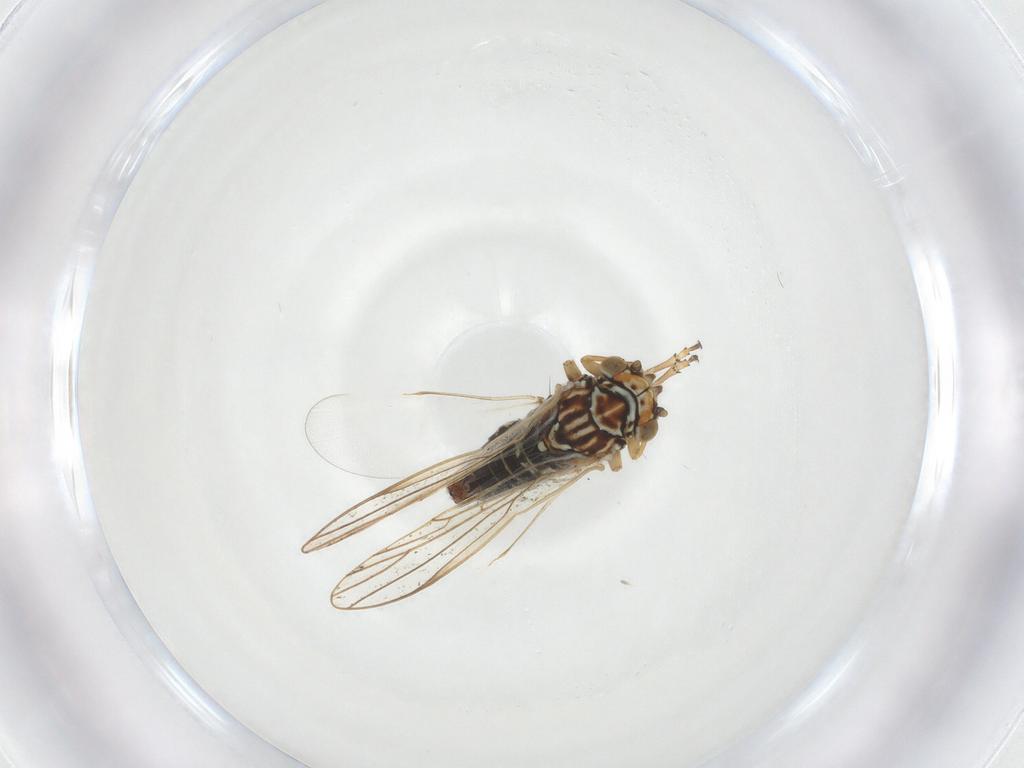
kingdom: Animalia
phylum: Arthropoda
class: Insecta
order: Hemiptera
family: Psyllidae
